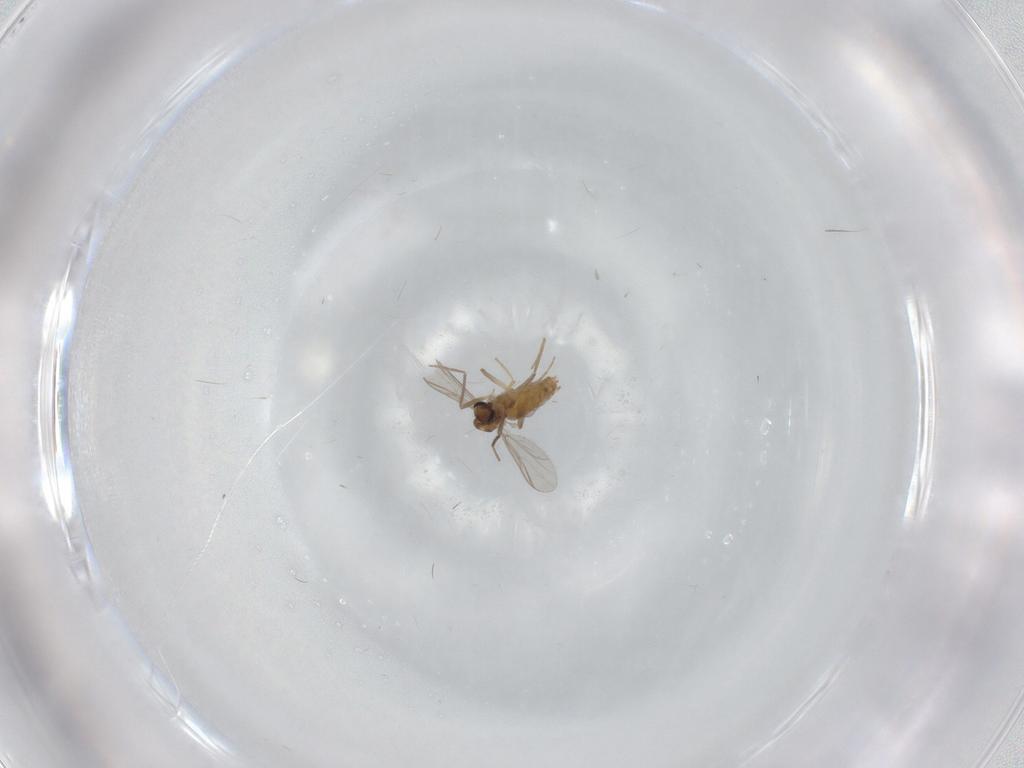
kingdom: Animalia
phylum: Arthropoda
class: Insecta
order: Diptera
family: Chironomidae
